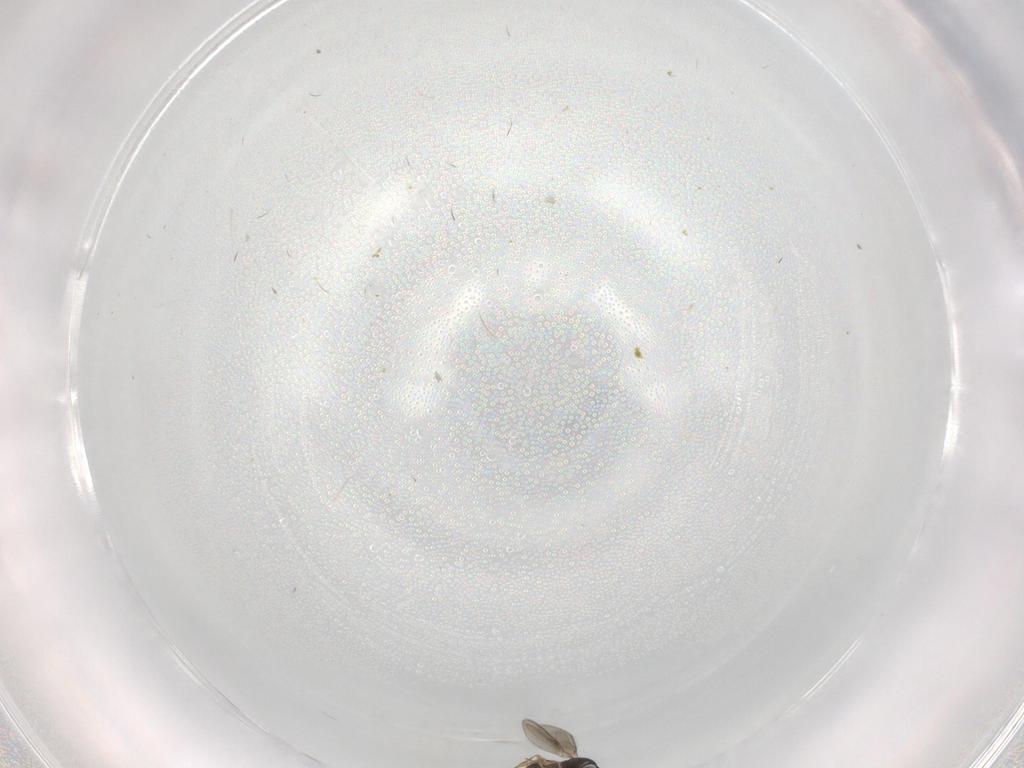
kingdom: Animalia
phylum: Arthropoda
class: Insecta
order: Hymenoptera
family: Scelionidae
